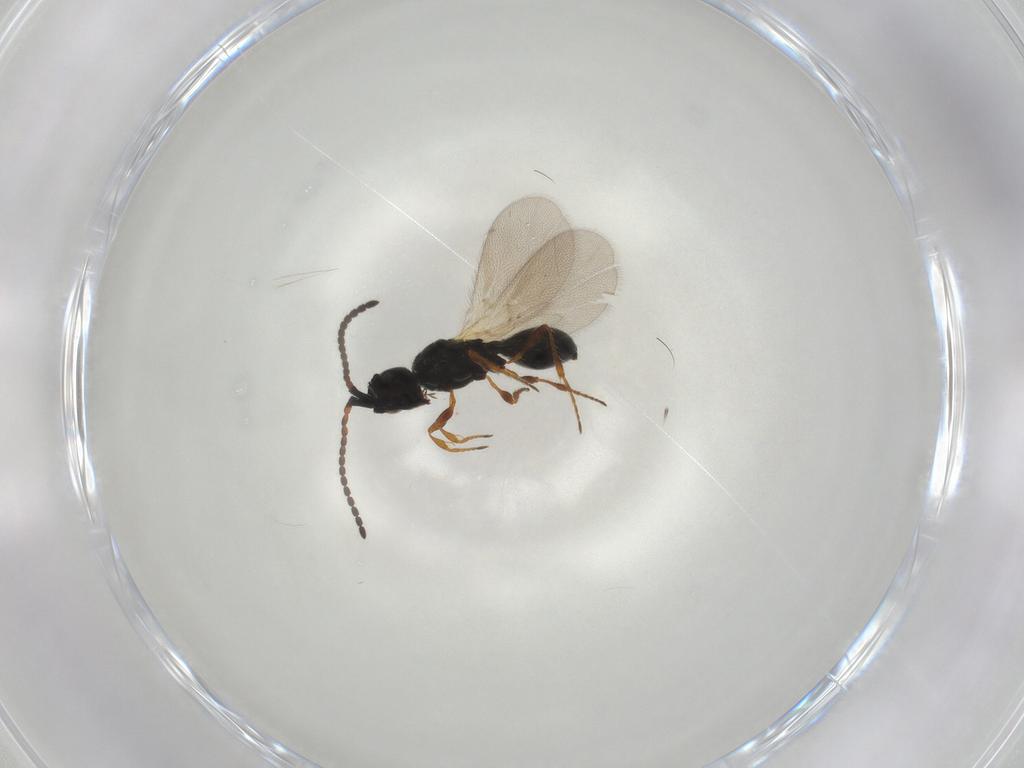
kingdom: Animalia
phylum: Arthropoda
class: Insecta
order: Hymenoptera
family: Diapriidae
